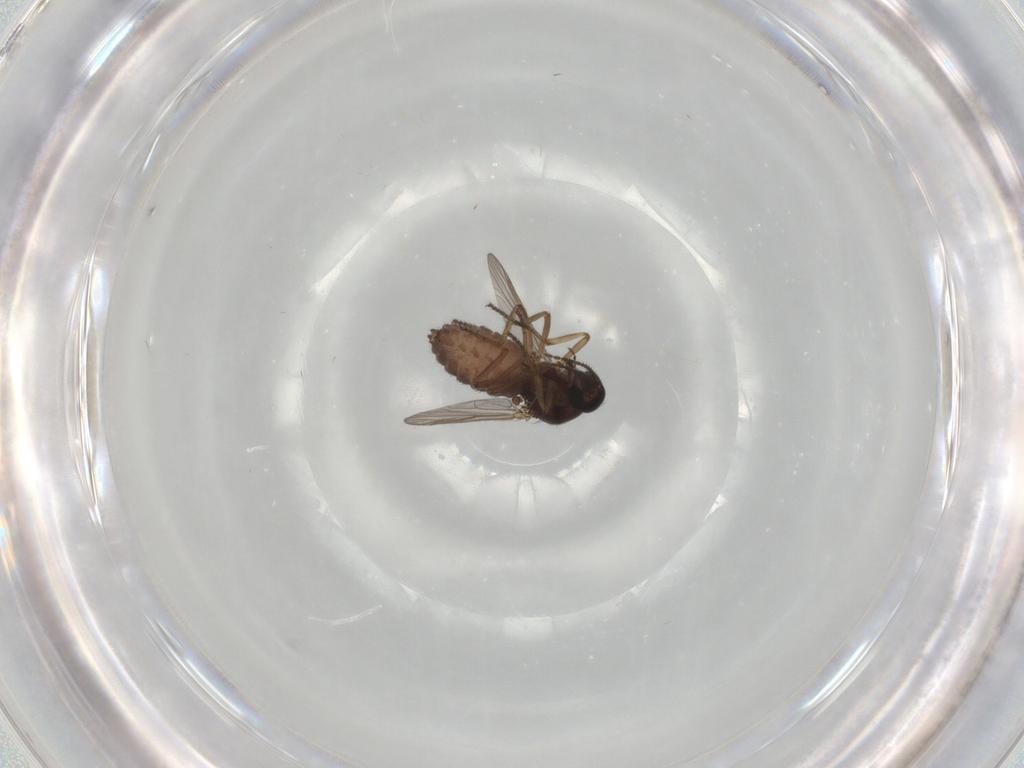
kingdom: Animalia
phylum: Arthropoda
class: Insecta
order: Diptera
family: Ceratopogonidae
